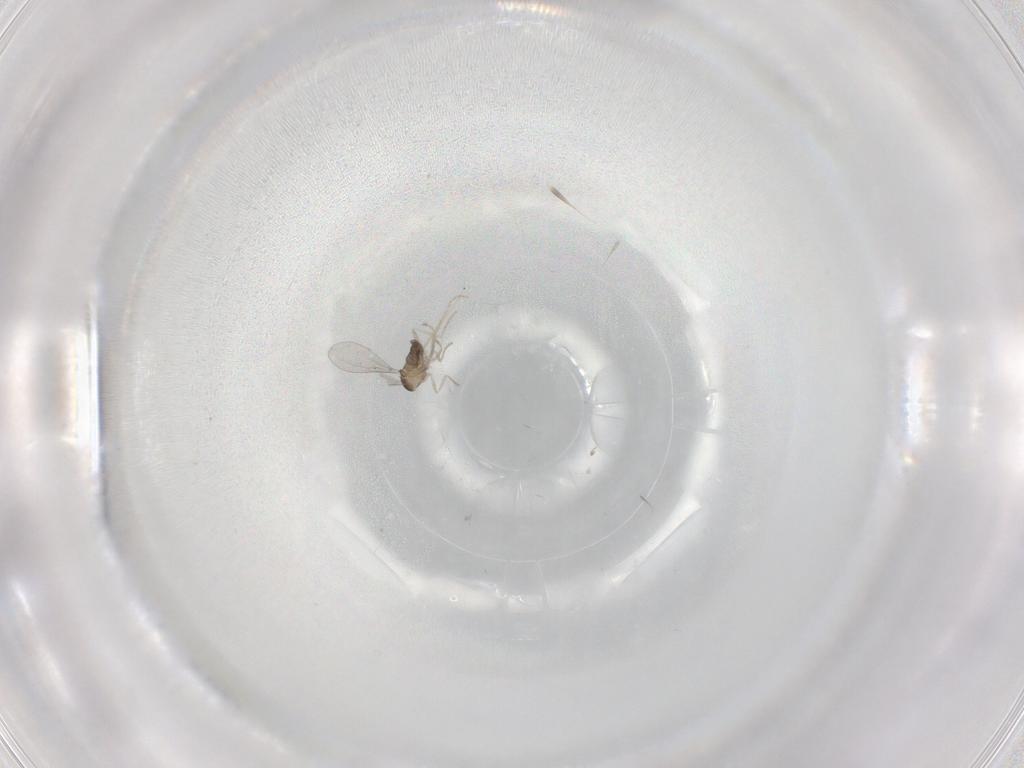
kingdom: Animalia
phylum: Arthropoda
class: Insecta
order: Diptera
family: Cecidomyiidae
